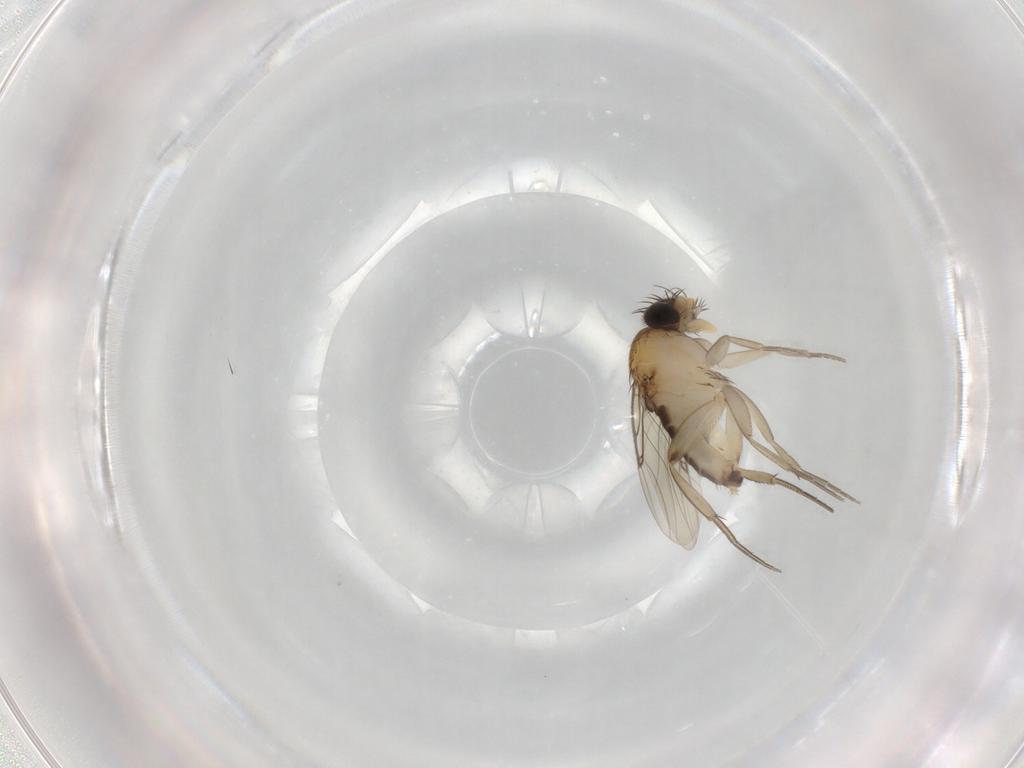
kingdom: Animalia
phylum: Arthropoda
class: Insecta
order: Diptera
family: Phoridae
